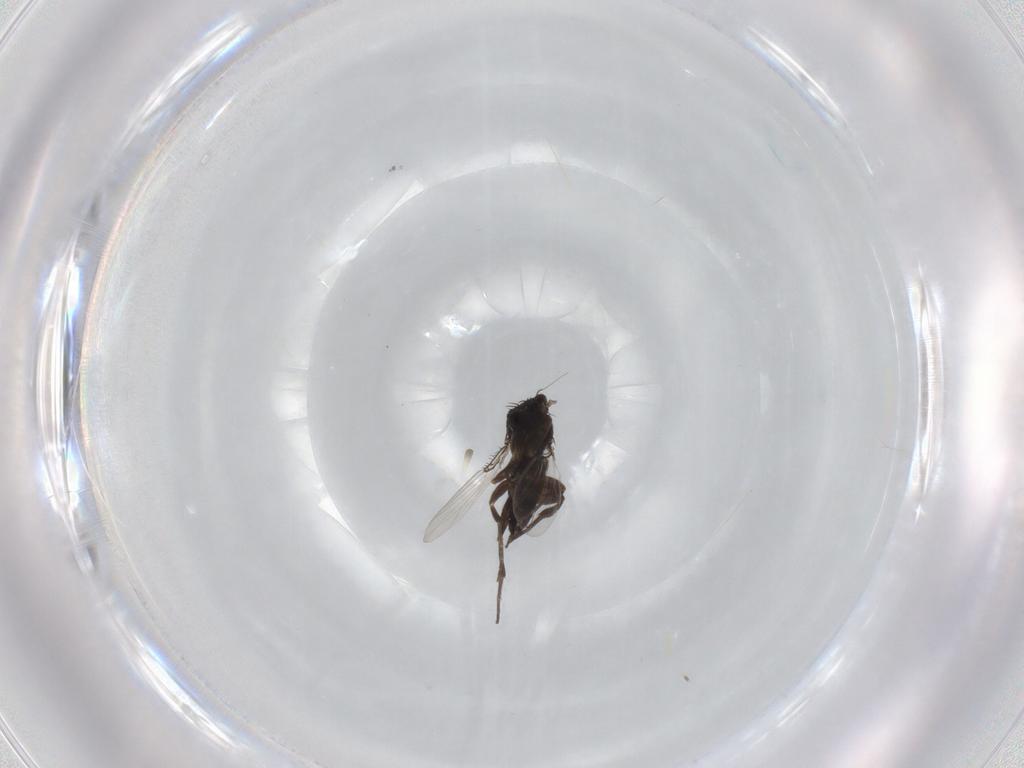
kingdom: Animalia
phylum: Arthropoda
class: Insecta
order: Diptera
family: Phoridae
